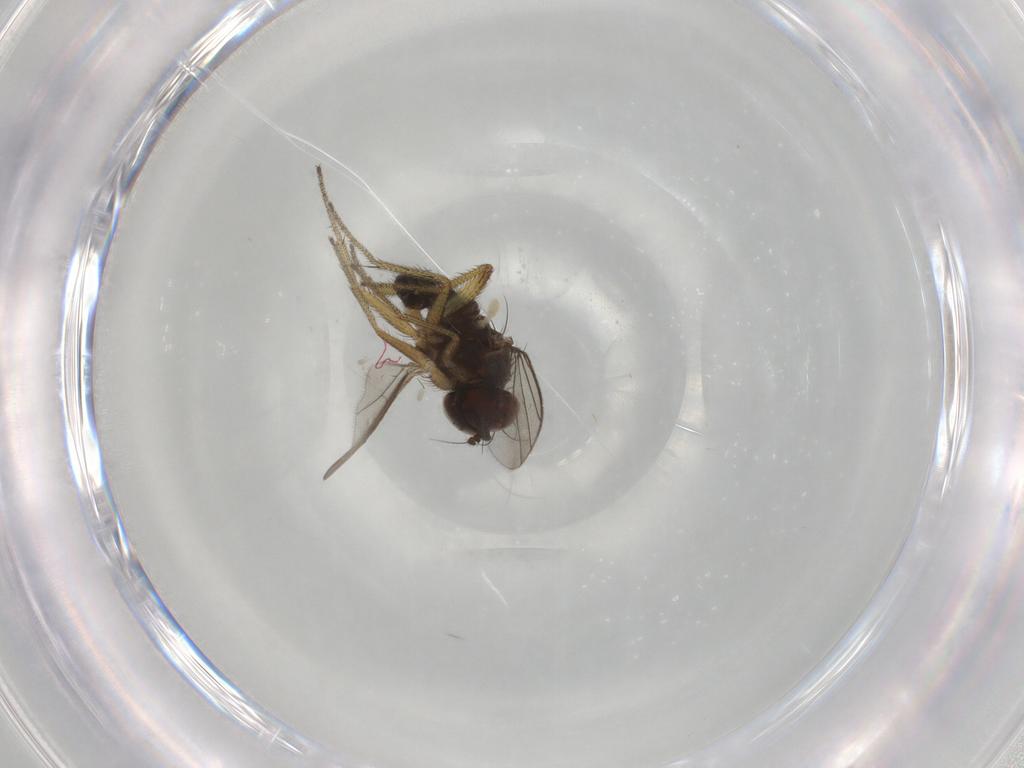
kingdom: Animalia
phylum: Arthropoda
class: Insecta
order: Diptera
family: Dolichopodidae
